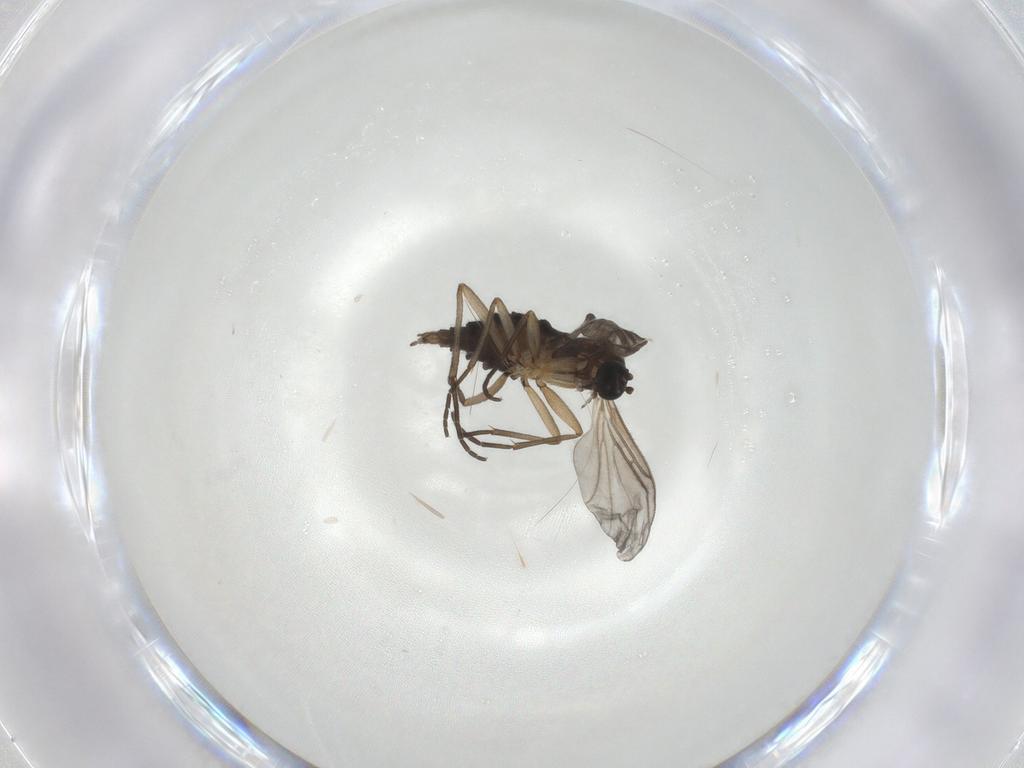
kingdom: Animalia
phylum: Arthropoda
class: Insecta
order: Diptera
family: Sciaridae
